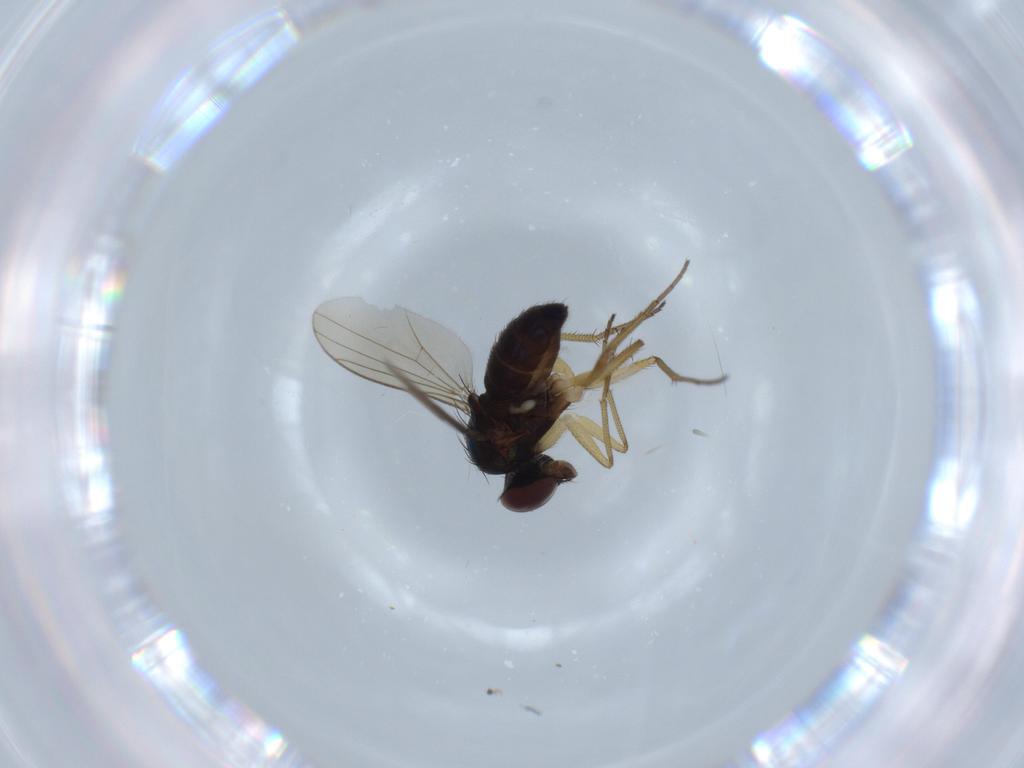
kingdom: Animalia
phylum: Arthropoda
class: Insecta
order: Diptera
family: Dolichopodidae
